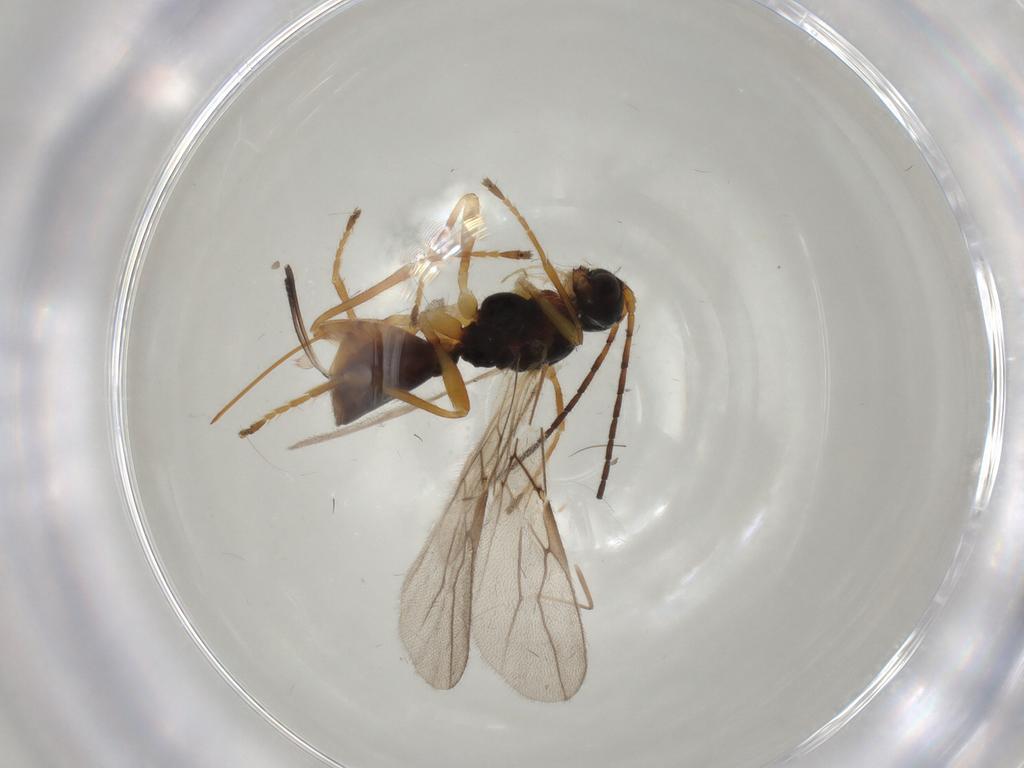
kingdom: Animalia
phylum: Arthropoda
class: Insecta
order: Hymenoptera
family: Braconidae
